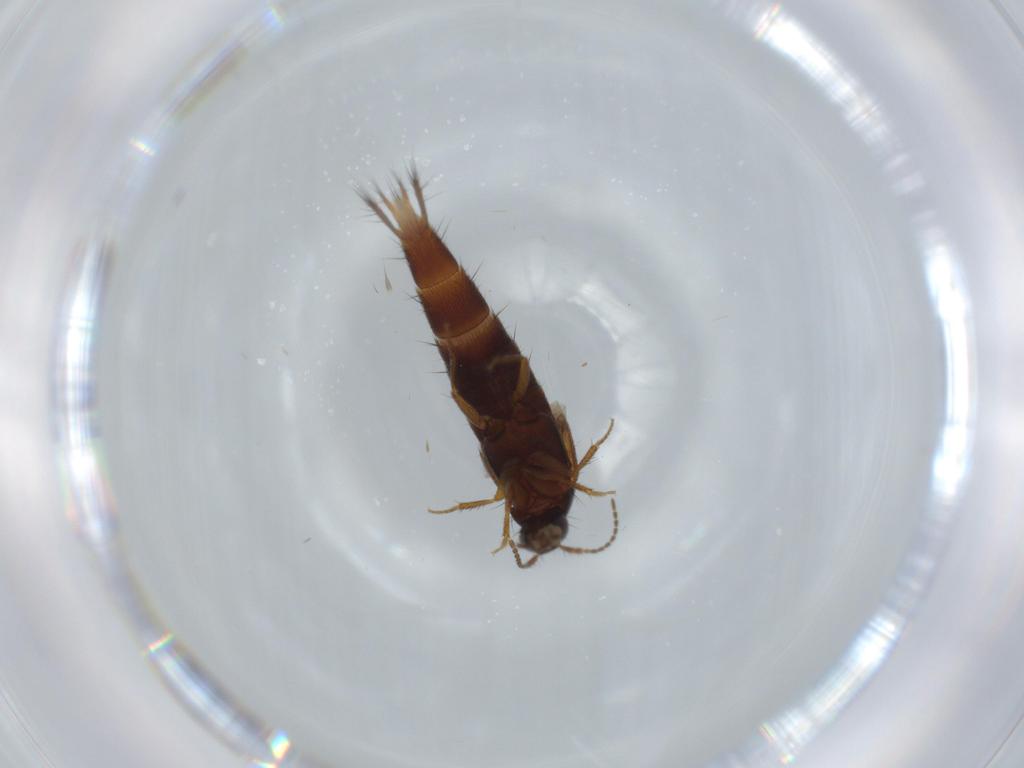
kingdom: Animalia
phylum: Arthropoda
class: Insecta
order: Coleoptera
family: Staphylinidae
